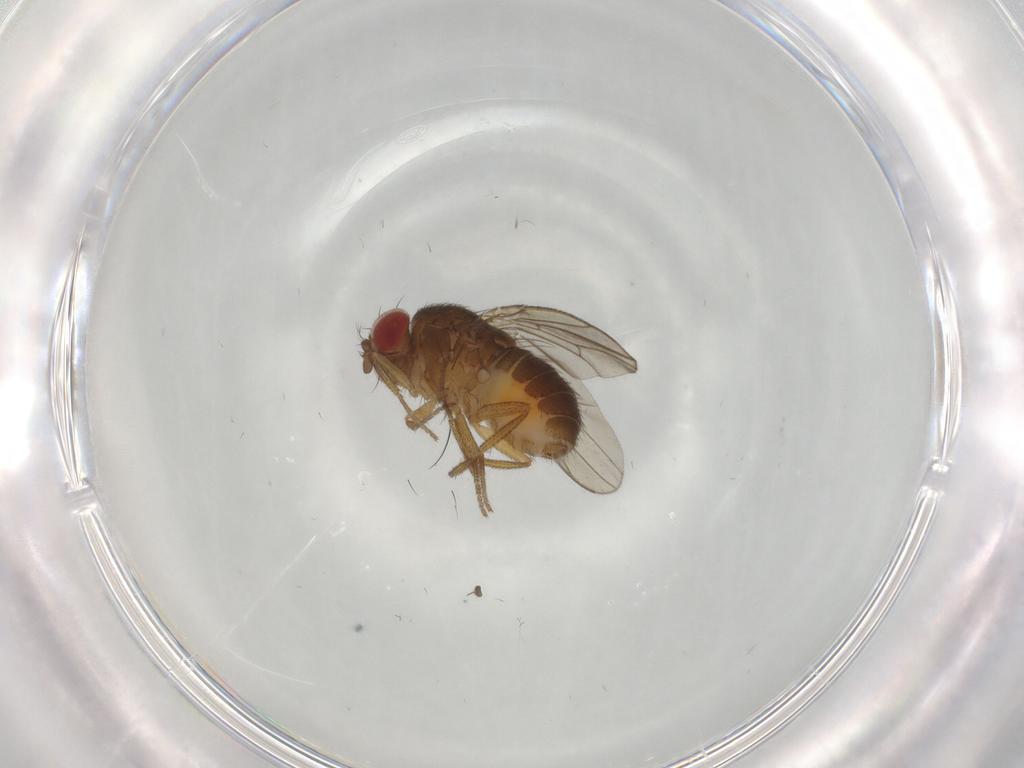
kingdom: Animalia
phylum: Arthropoda
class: Insecta
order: Diptera
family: Drosophilidae
